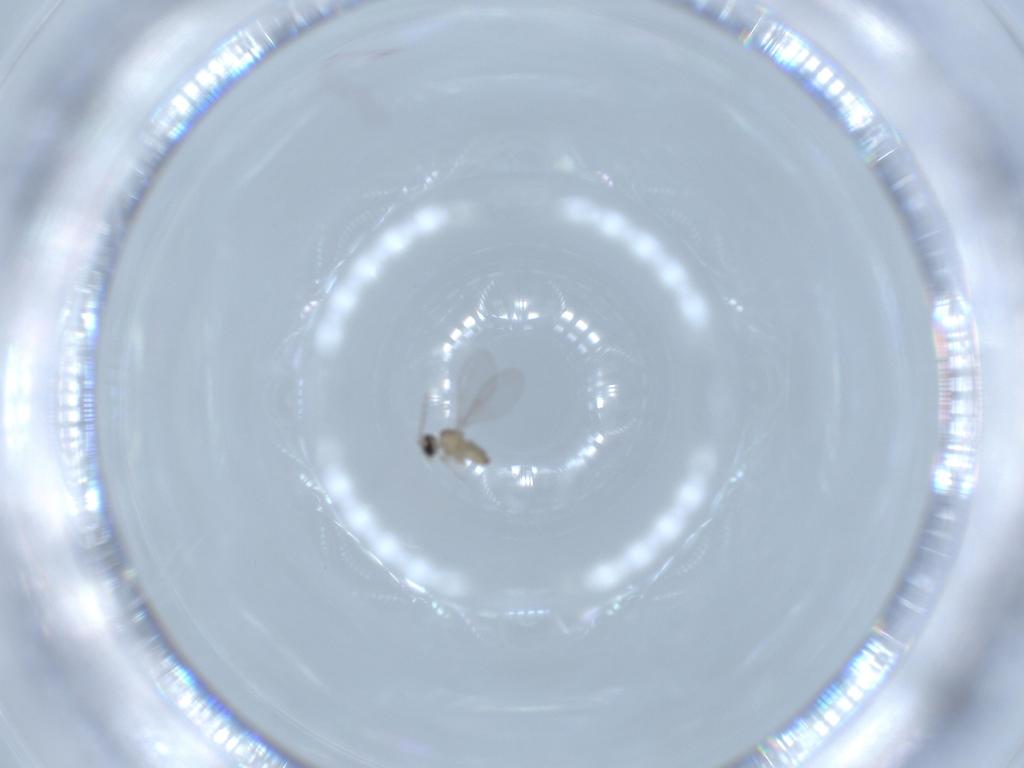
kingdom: Animalia
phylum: Arthropoda
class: Insecta
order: Diptera
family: Cecidomyiidae
